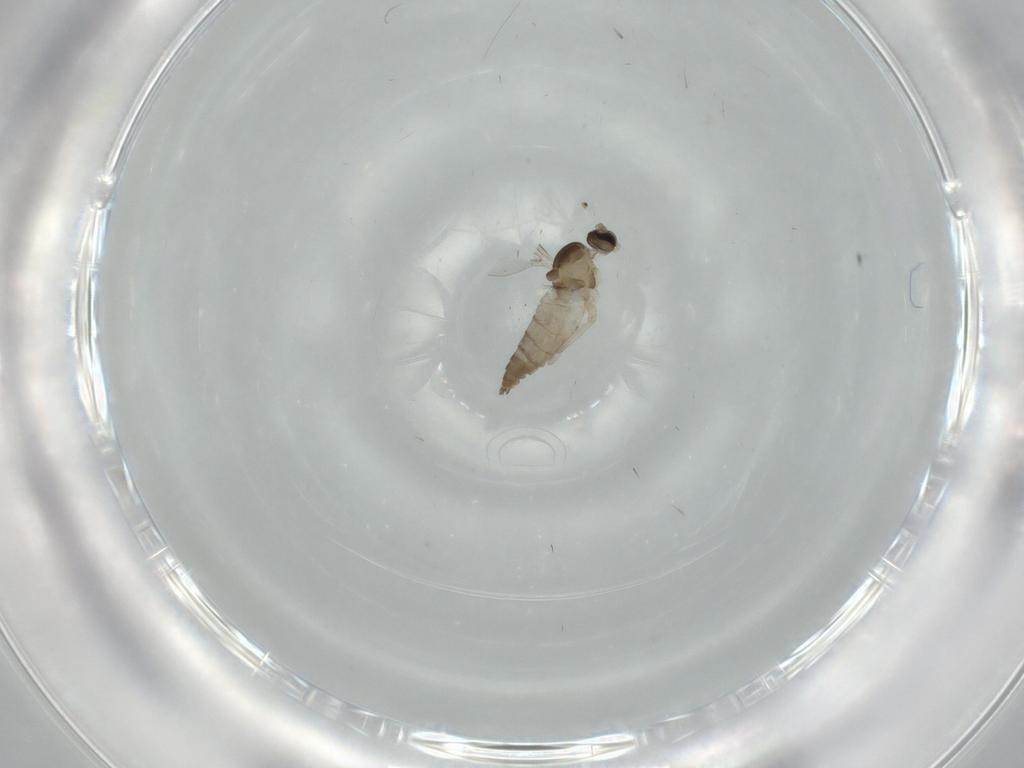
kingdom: Animalia
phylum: Arthropoda
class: Insecta
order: Diptera
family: Cecidomyiidae
